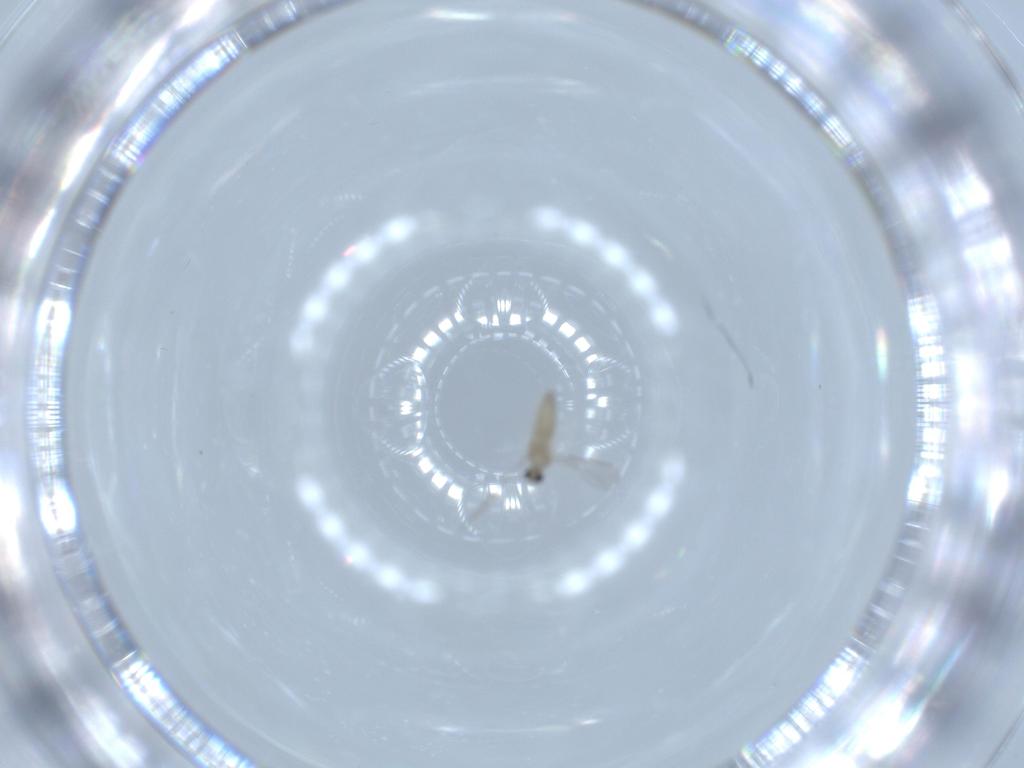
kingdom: Animalia
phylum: Arthropoda
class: Insecta
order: Diptera
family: Cecidomyiidae
